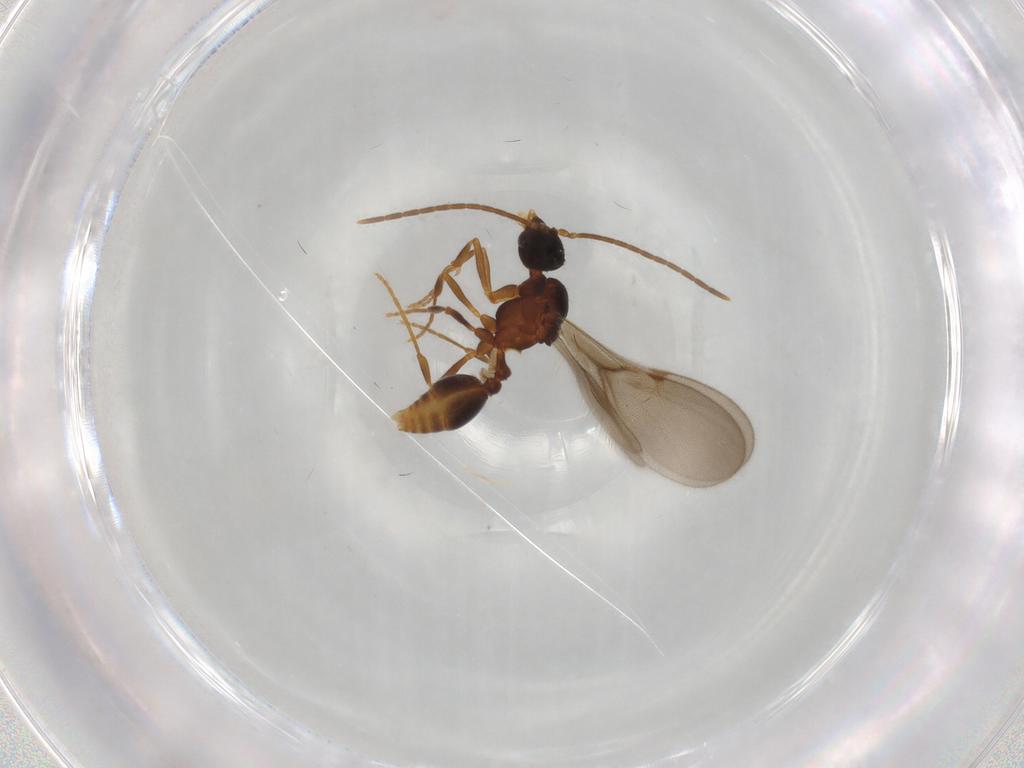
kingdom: Animalia
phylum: Arthropoda
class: Insecta
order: Hymenoptera
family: Formicidae
